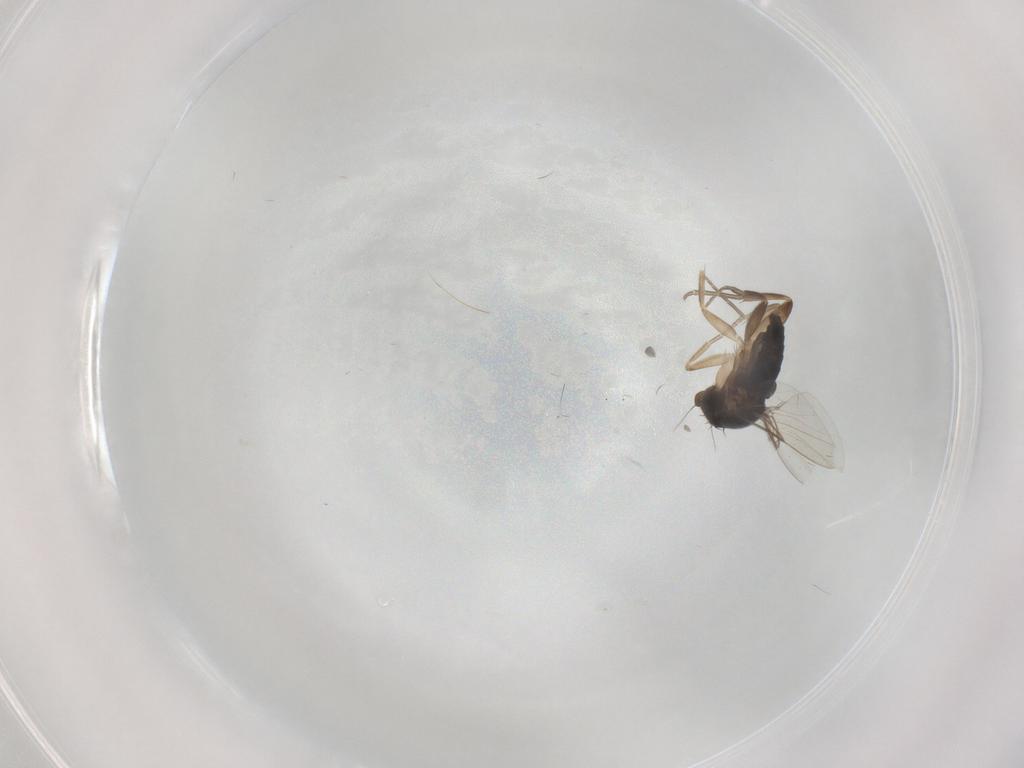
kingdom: Animalia
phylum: Arthropoda
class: Insecta
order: Diptera
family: Chironomidae
